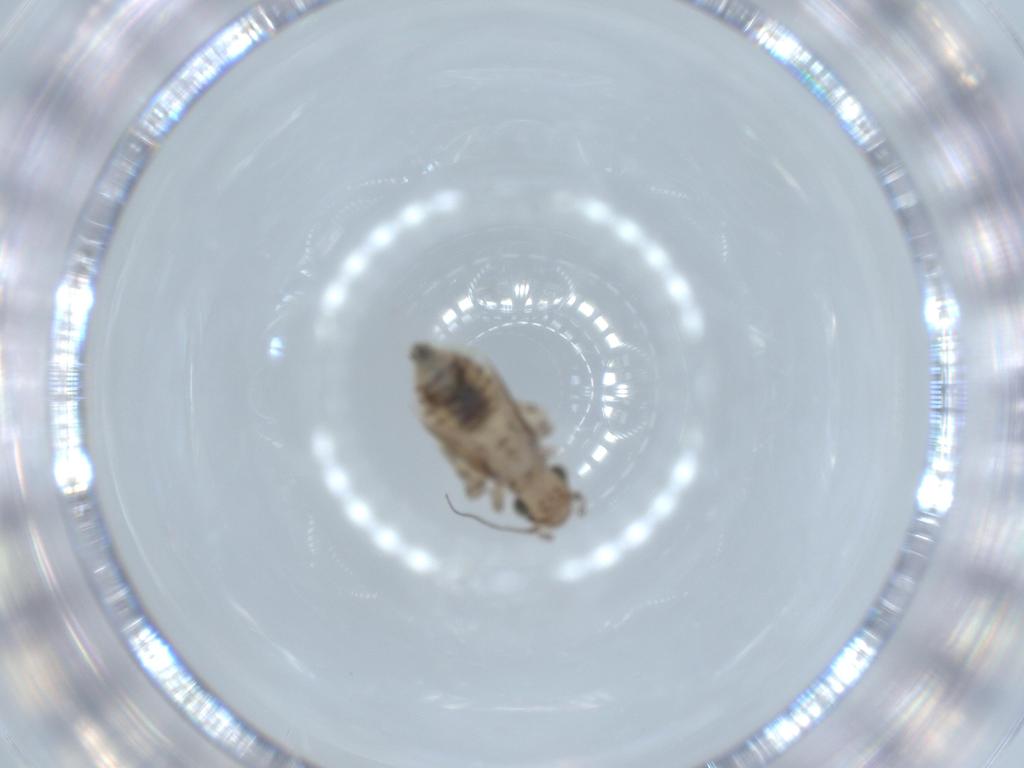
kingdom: Animalia
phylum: Arthropoda
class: Insecta
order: Psocodea
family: Lepidopsocidae
